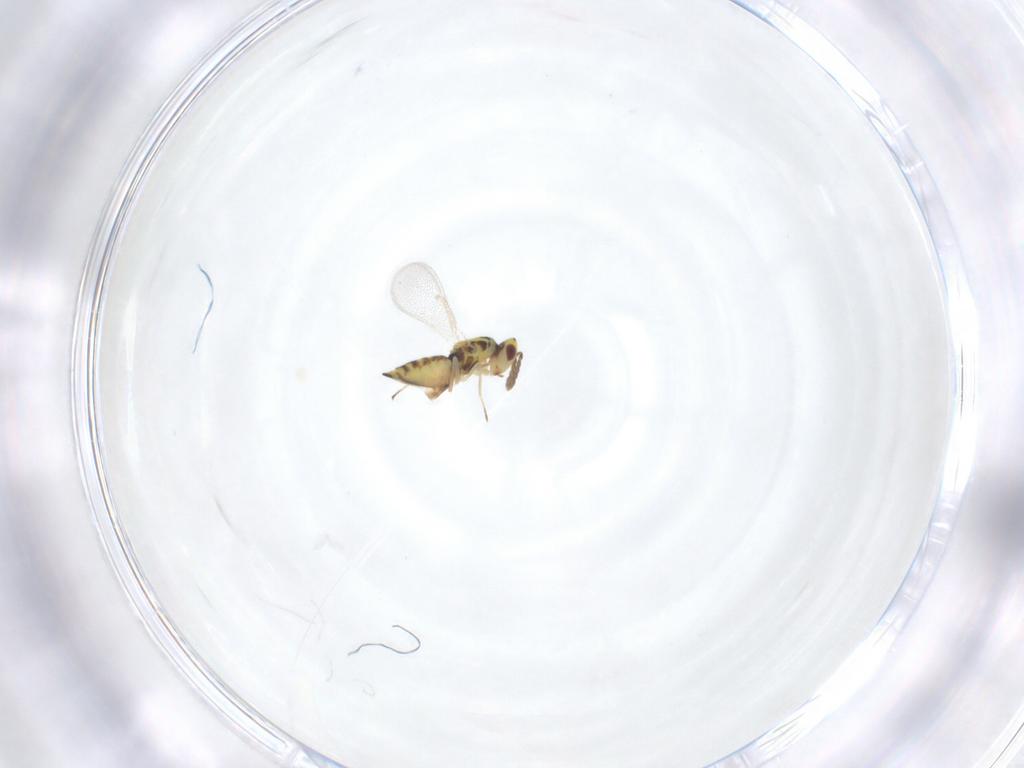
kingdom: Animalia
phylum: Arthropoda
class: Insecta
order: Hymenoptera
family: Eulophidae
